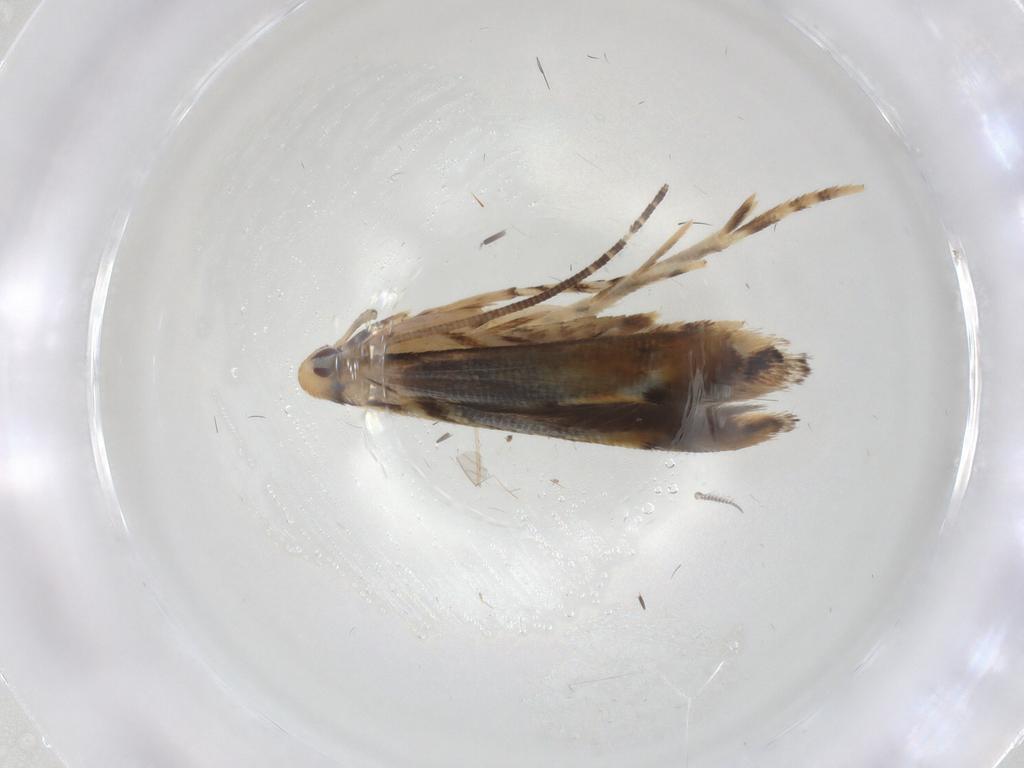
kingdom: Animalia
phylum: Arthropoda
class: Insecta
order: Lepidoptera
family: Momphidae
